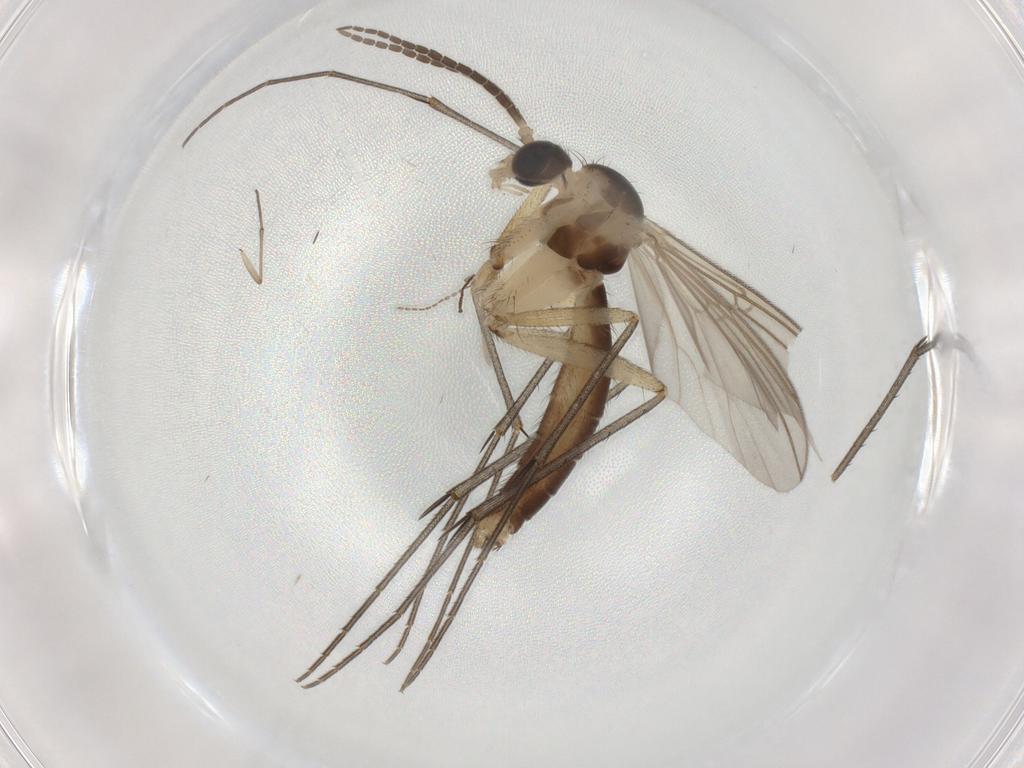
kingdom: Animalia
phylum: Arthropoda
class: Insecta
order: Diptera
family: Mycetophilidae
